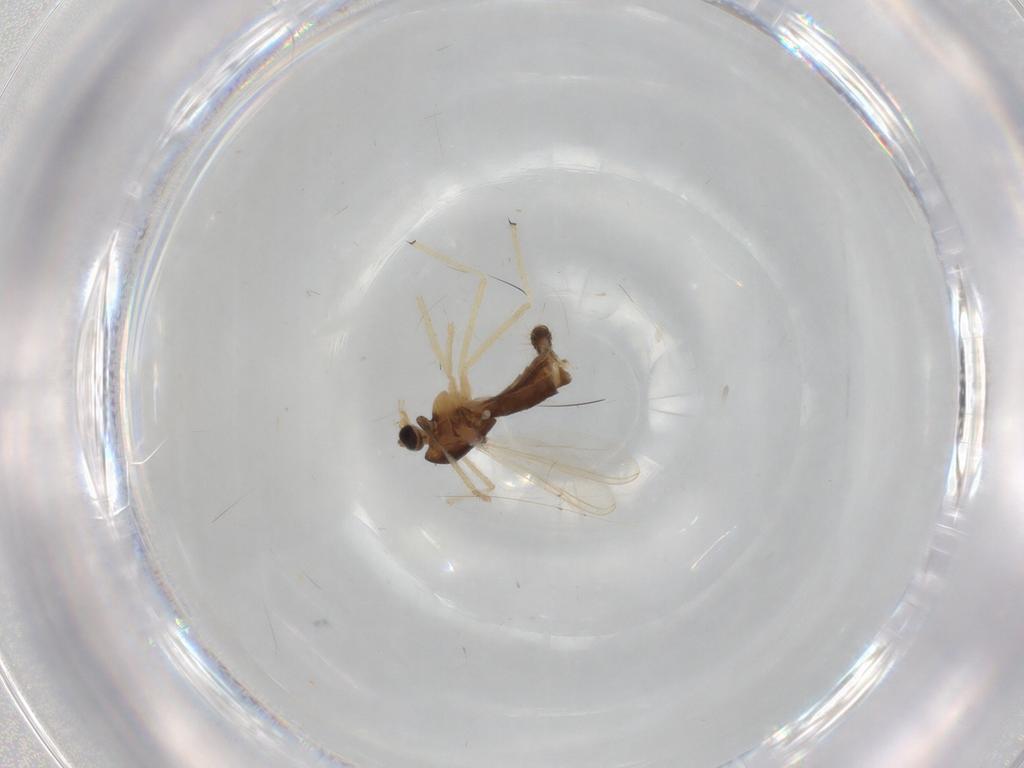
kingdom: Animalia
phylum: Arthropoda
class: Insecta
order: Diptera
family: Chironomidae
